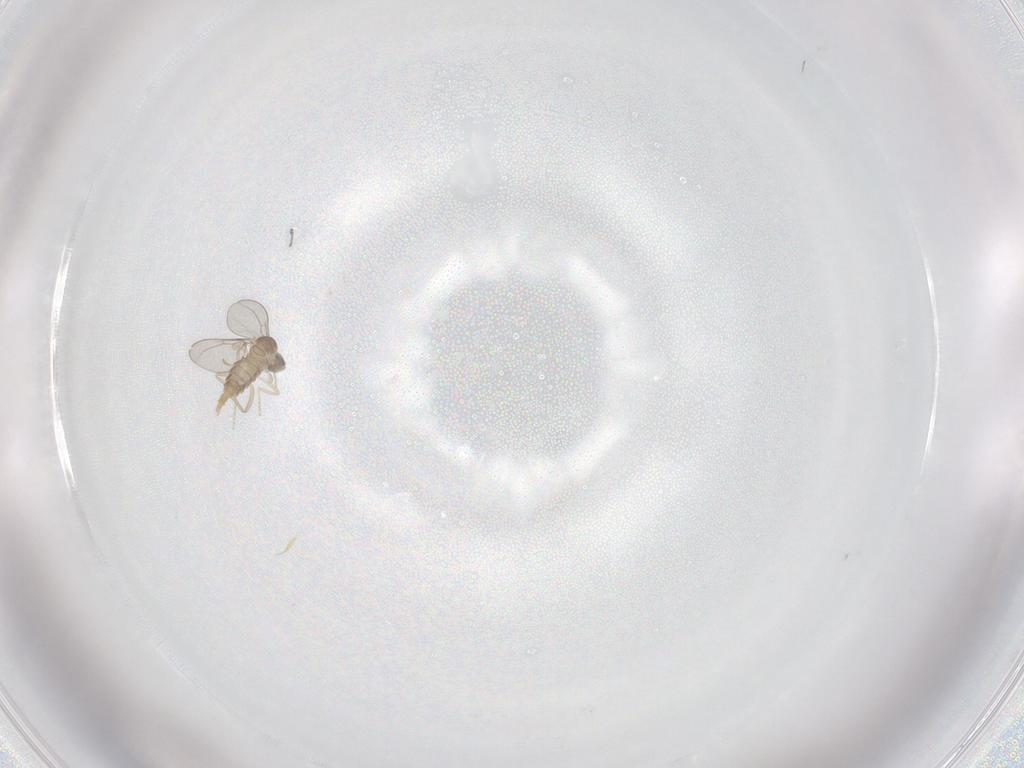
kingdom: Animalia
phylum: Arthropoda
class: Insecta
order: Diptera
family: Cecidomyiidae
